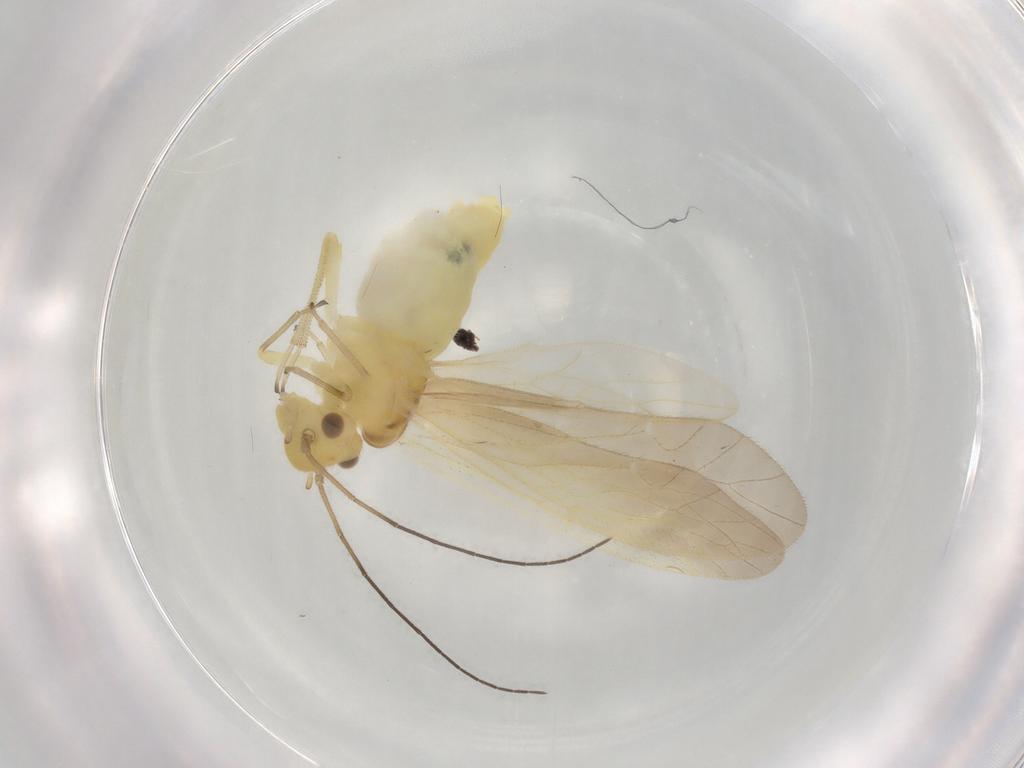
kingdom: Animalia
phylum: Arthropoda
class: Insecta
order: Psocodea
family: Caeciliusidae
